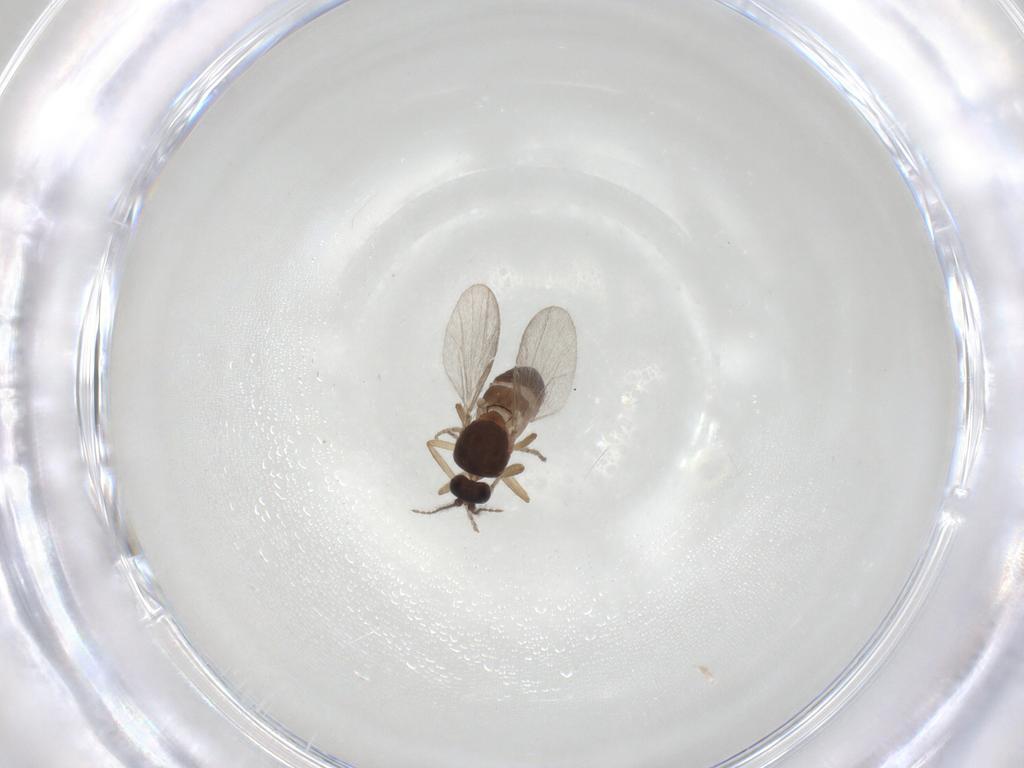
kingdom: Animalia
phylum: Arthropoda
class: Insecta
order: Diptera
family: Ceratopogonidae
